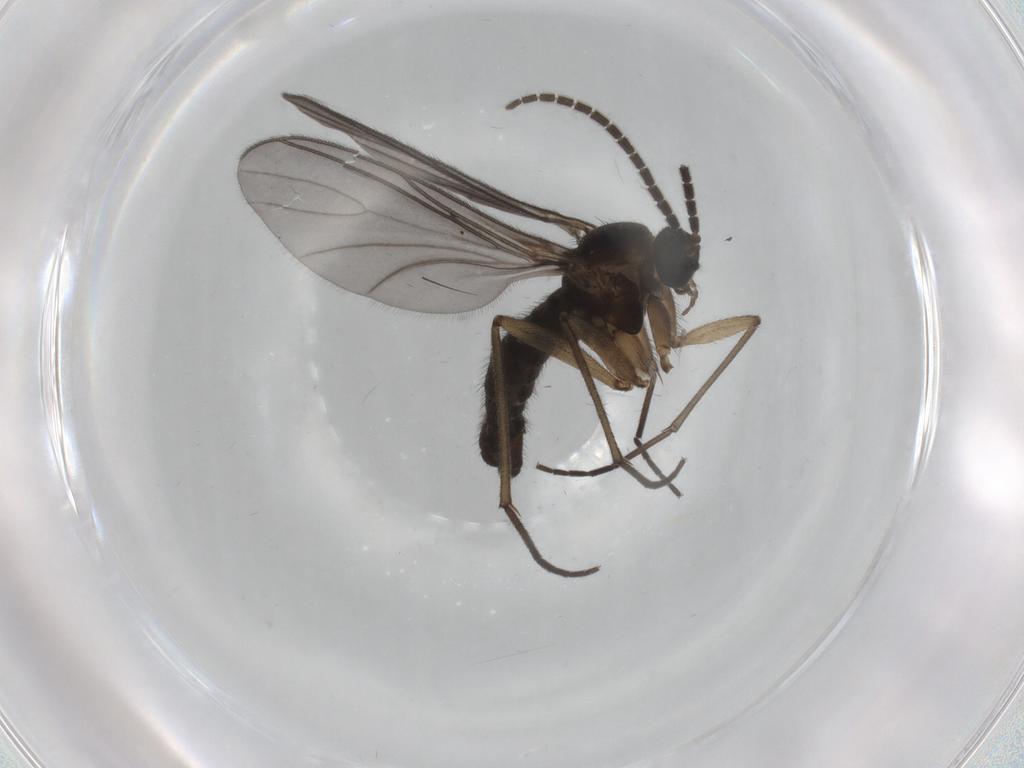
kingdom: Animalia
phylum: Arthropoda
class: Insecta
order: Diptera
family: Sciaridae
